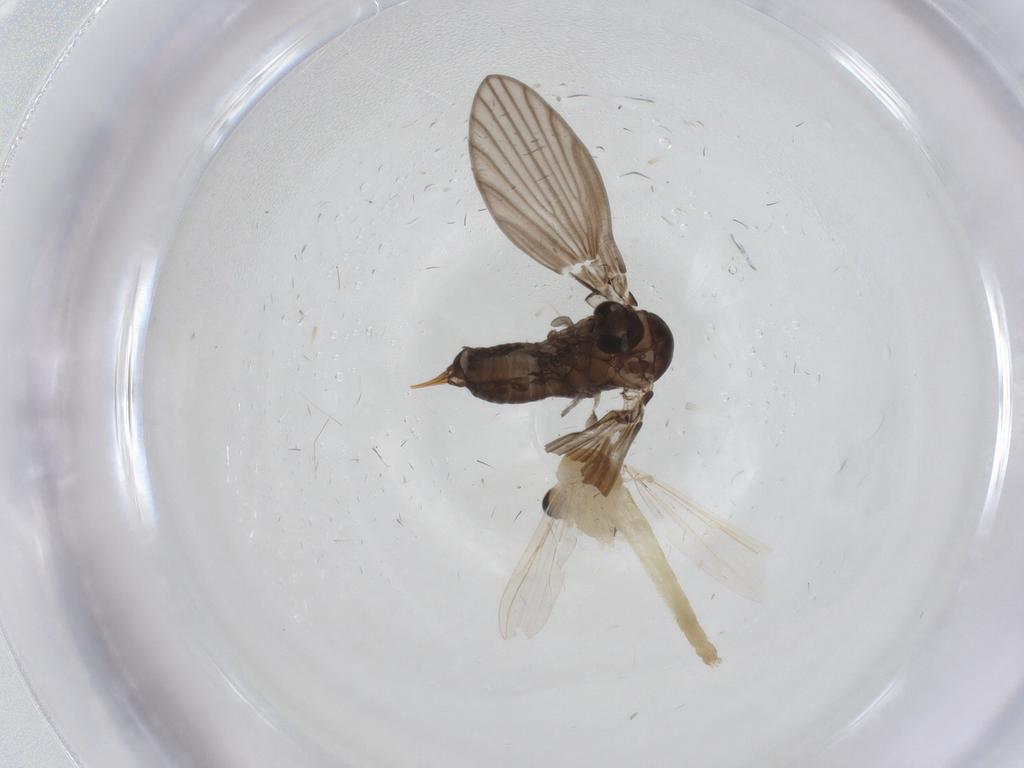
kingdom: Animalia
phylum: Arthropoda
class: Insecta
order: Diptera
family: Psychodidae
